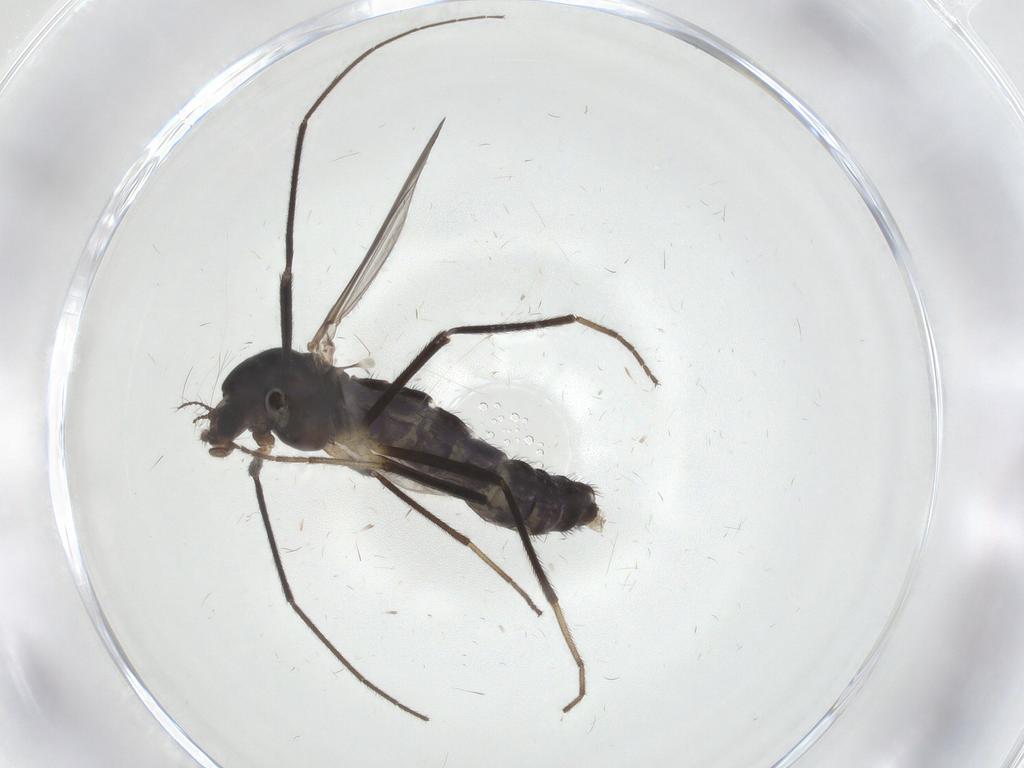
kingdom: Animalia
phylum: Arthropoda
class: Insecta
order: Diptera
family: Chironomidae
